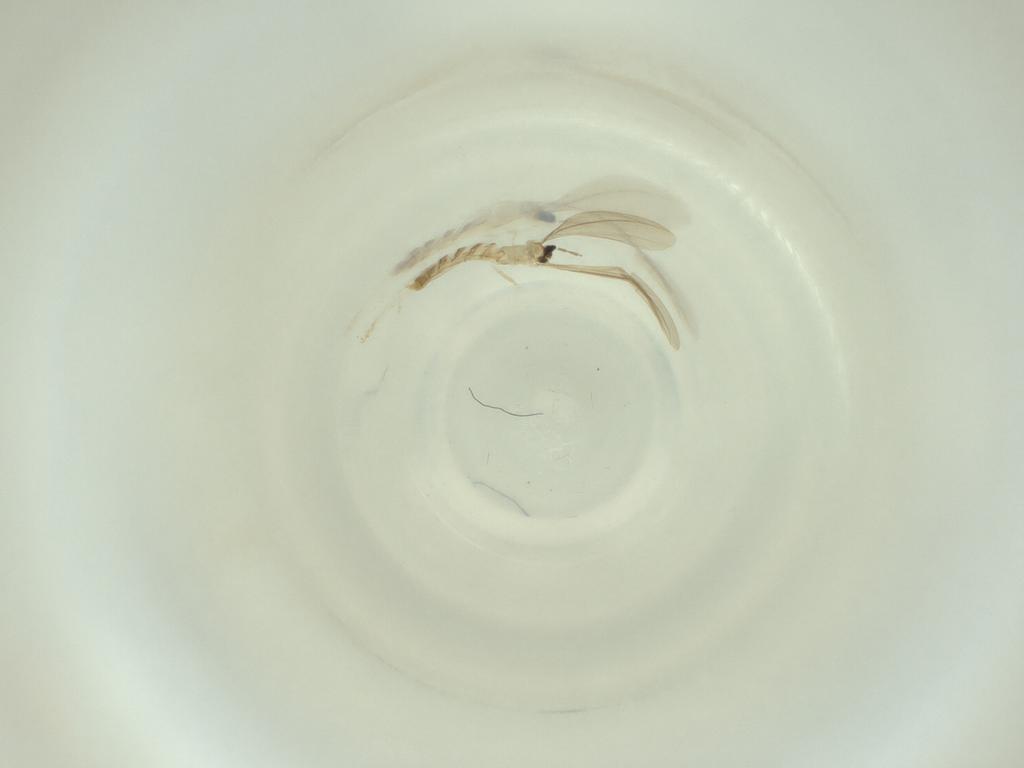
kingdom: Animalia
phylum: Arthropoda
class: Insecta
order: Diptera
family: Cecidomyiidae
